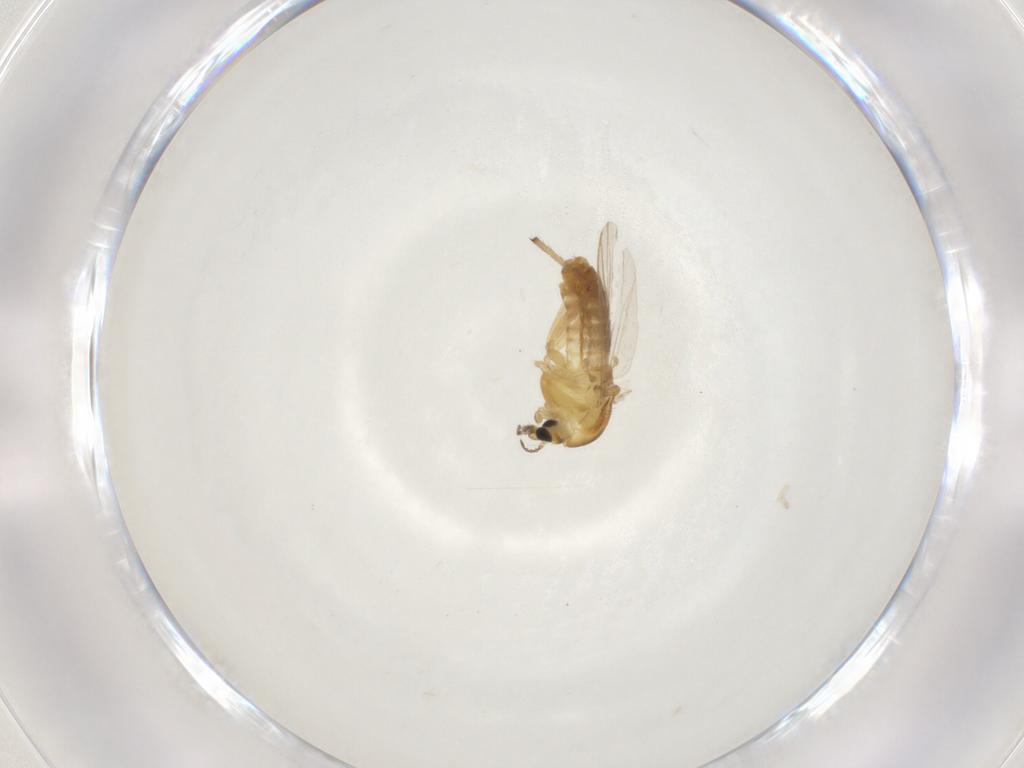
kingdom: Animalia
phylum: Arthropoda
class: Insecta
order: Diptera
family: Chironomidae
